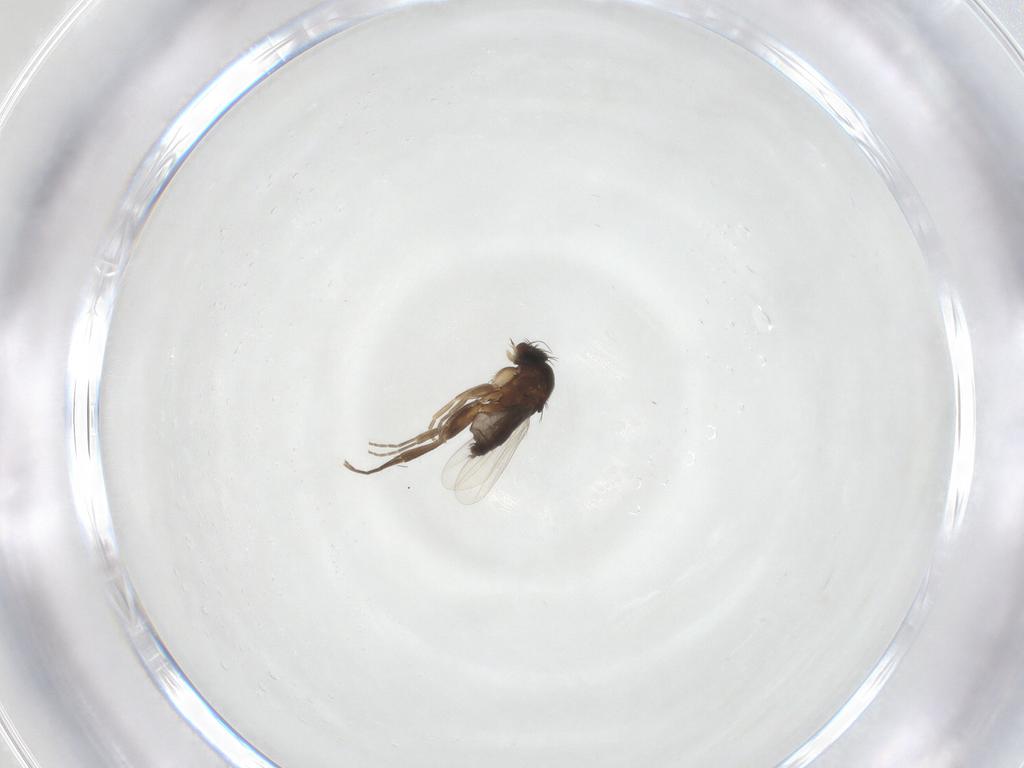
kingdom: Animalia
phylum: Arthropoda
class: Insecta
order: Diptera
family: Phoridae
